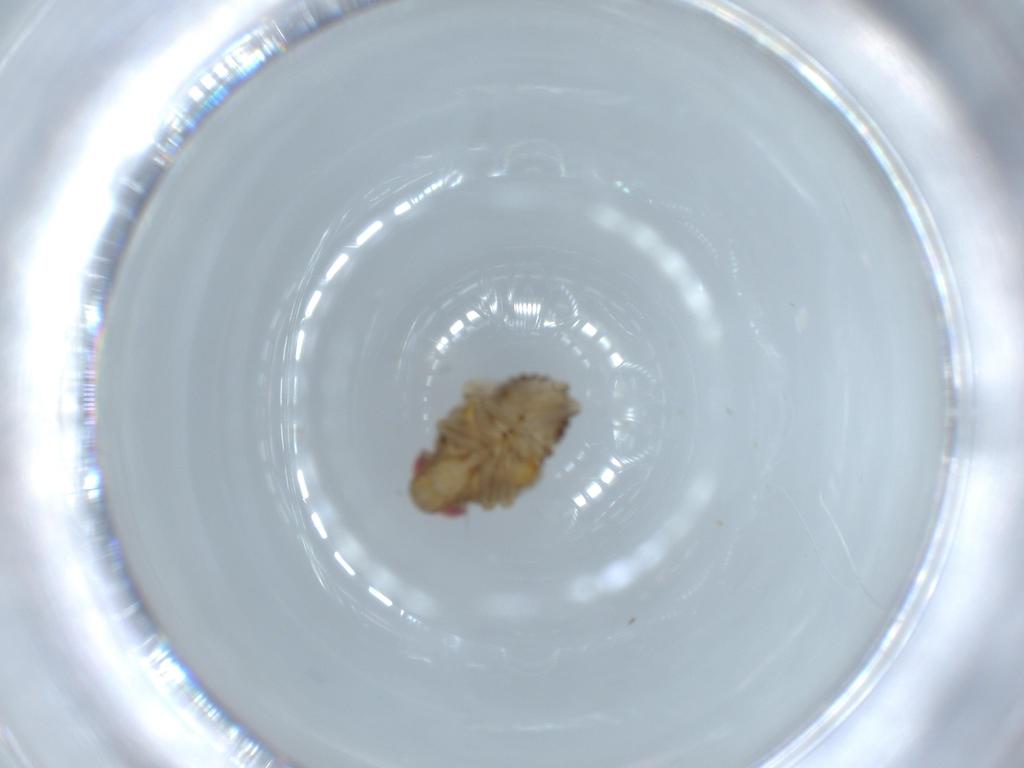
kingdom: Animalia
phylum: Arthropoda
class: Insecta
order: Hemiptera
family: Issidae
